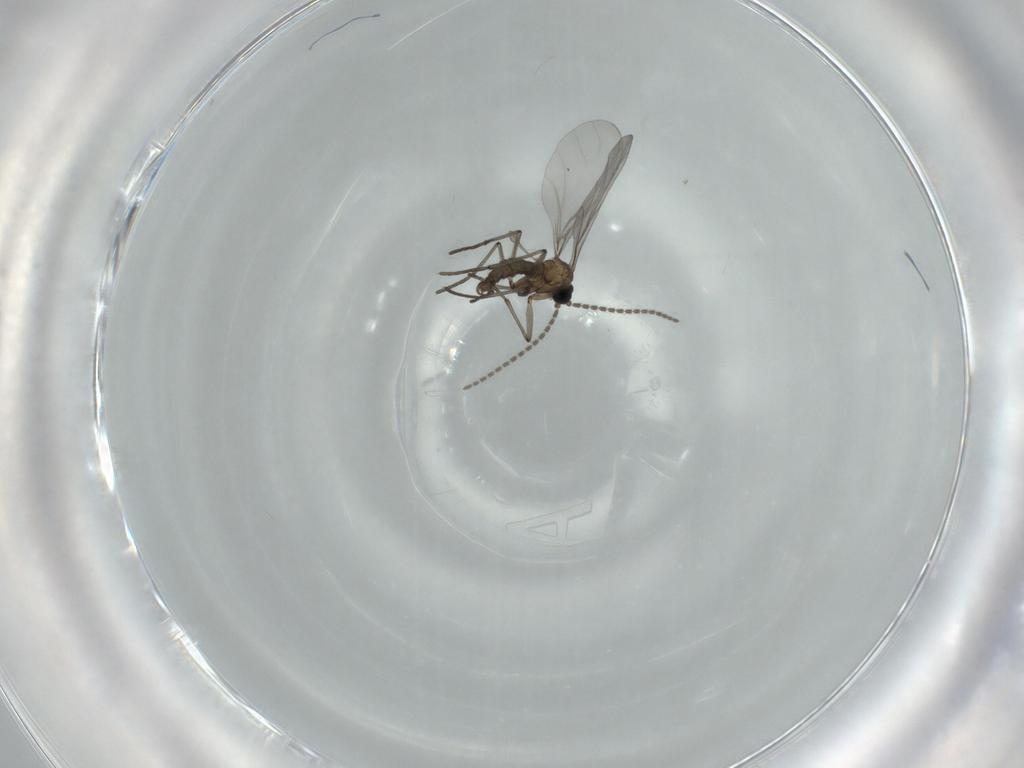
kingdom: Animalia
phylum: Arthropoda
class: Insecta
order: Diptera
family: Sciaridae
